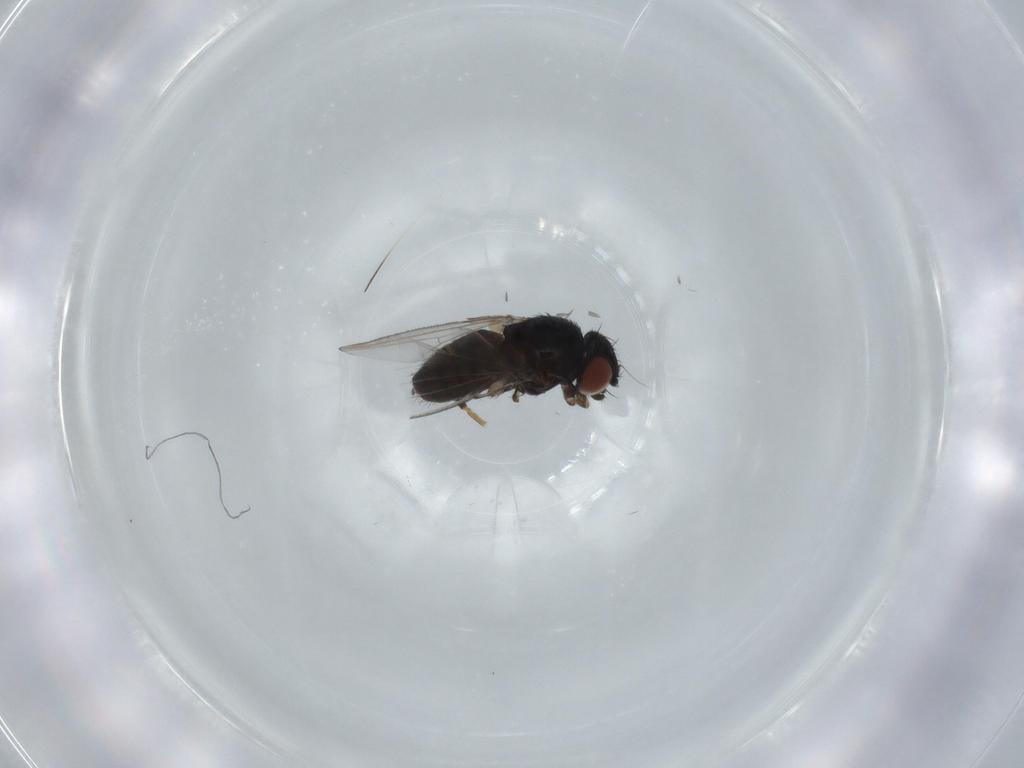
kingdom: Animalia
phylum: Arthropoda
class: Insecta
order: Diptera
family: Milichiidae
